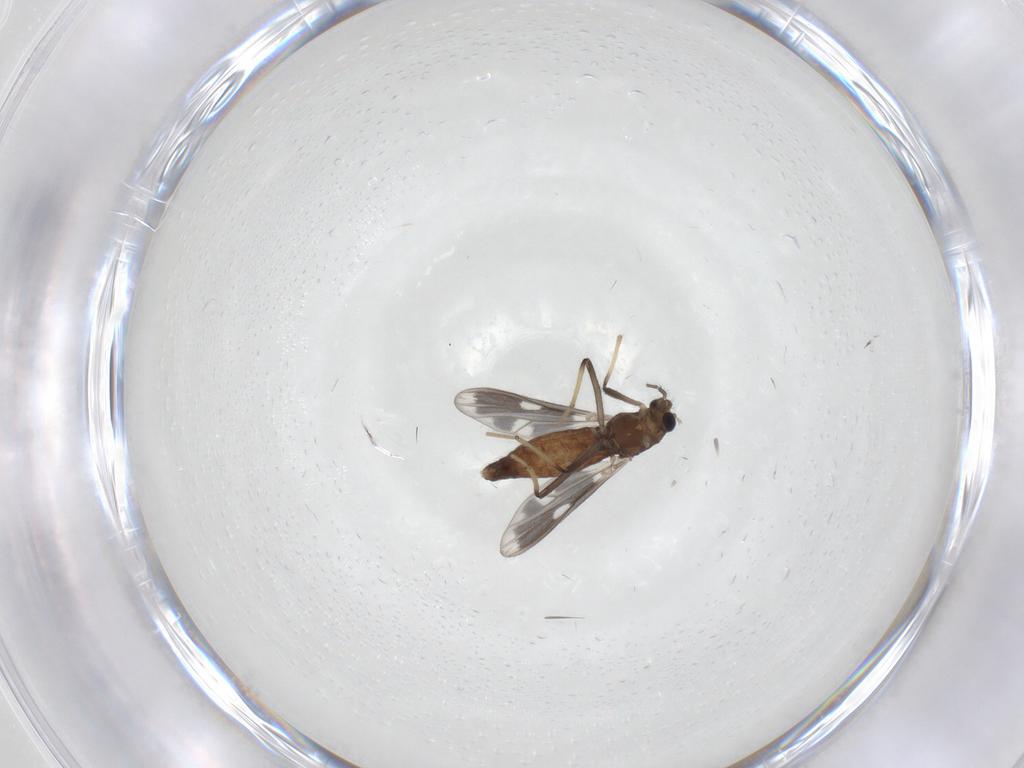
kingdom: Animalia
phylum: Arthropoda
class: Insecta
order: Diptera
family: Chironomidae
